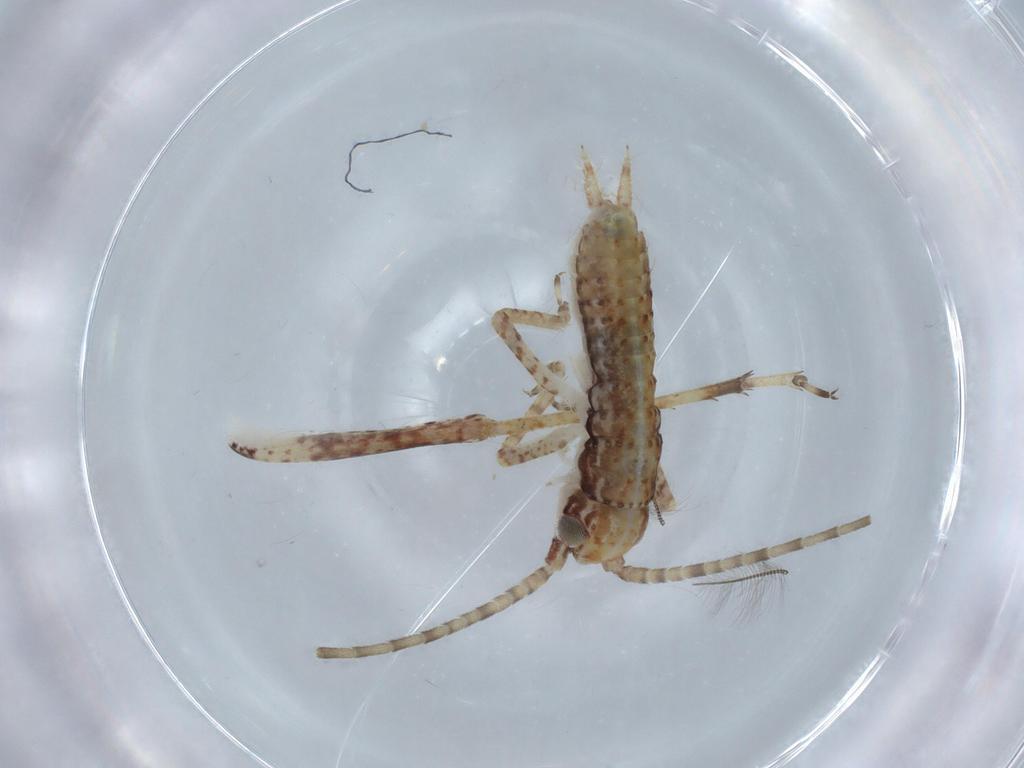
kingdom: Animalia
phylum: Arthropoda
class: Insecta
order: Orthoptera
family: Gryllidae
